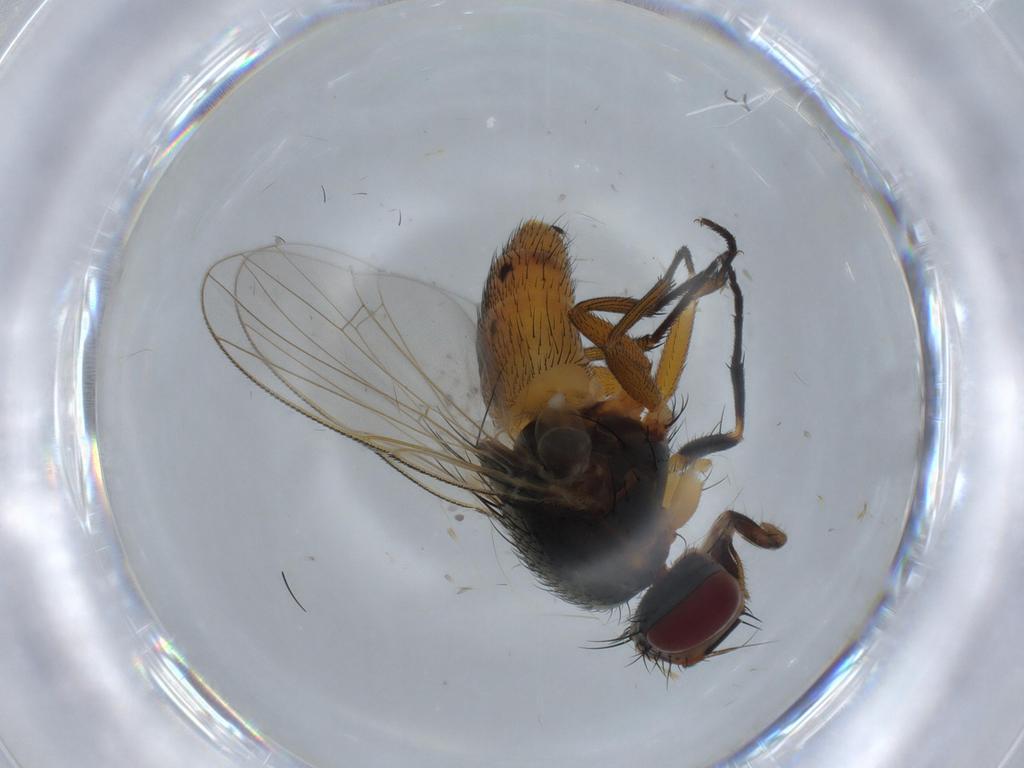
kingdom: Animalia
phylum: Arthropoda
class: Insecta
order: Diptera
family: Muscidae
